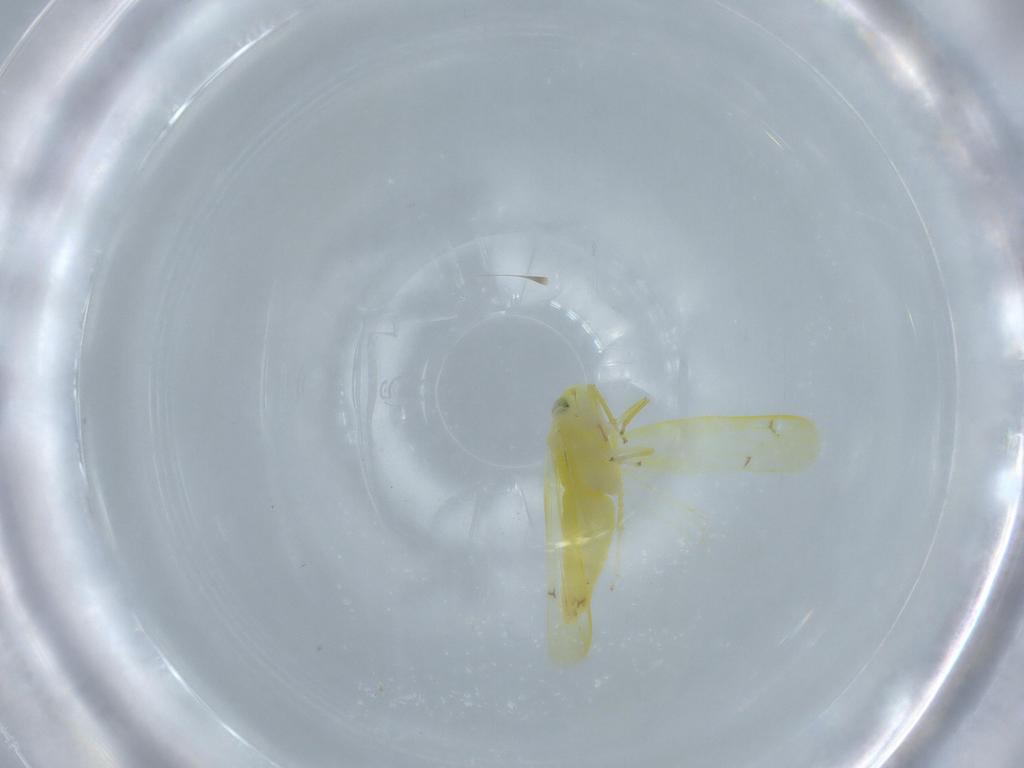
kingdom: Animalia
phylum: Arthropoda
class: Insecta
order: Hemiptera
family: Cicadellidae
